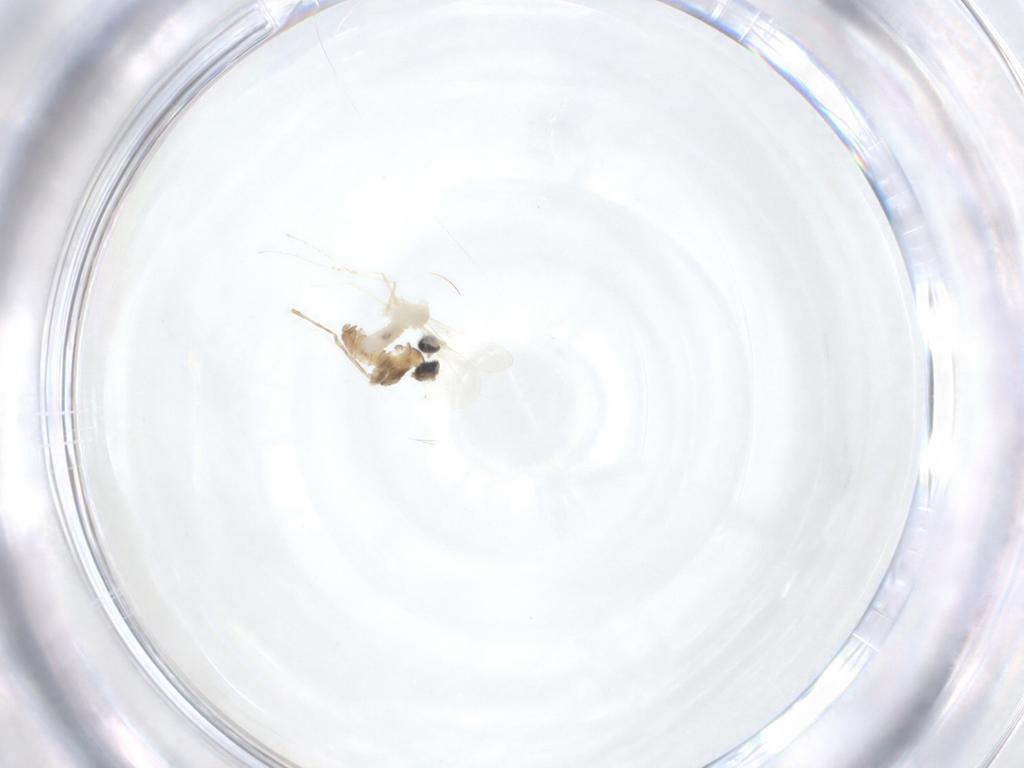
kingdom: Animalia
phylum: Arthropoda
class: Insecta
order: Diptera
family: Cecidomyiidae
